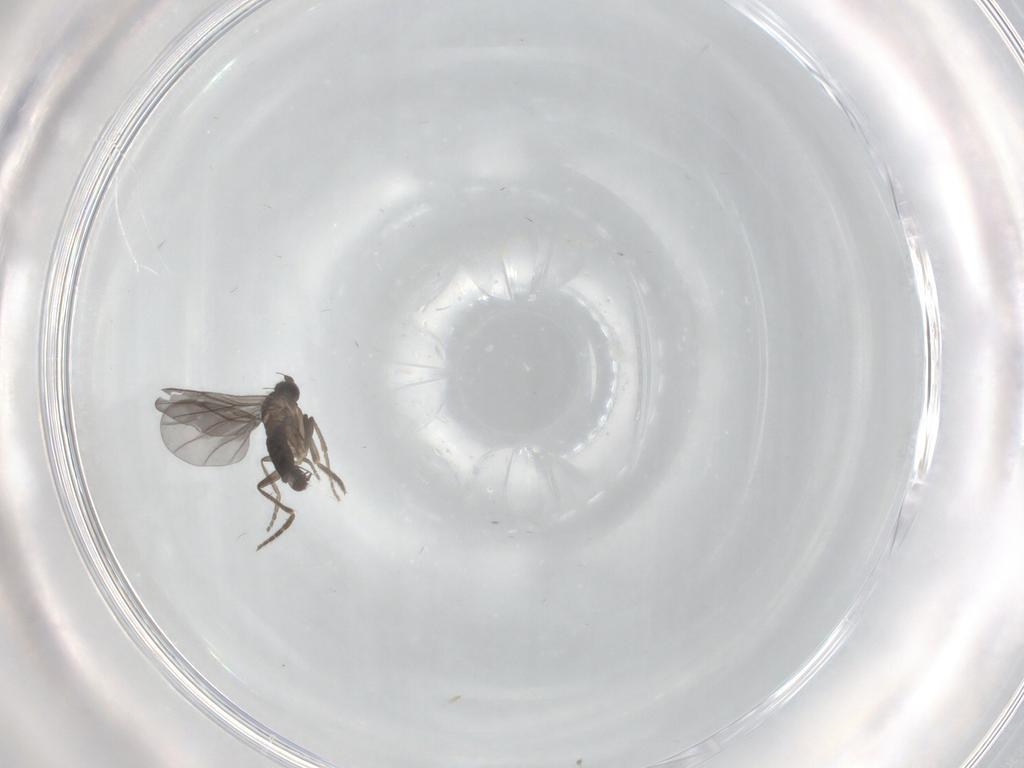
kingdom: Animalia
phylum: Arthropoda
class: Insecta
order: Diptera
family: Phoridae
